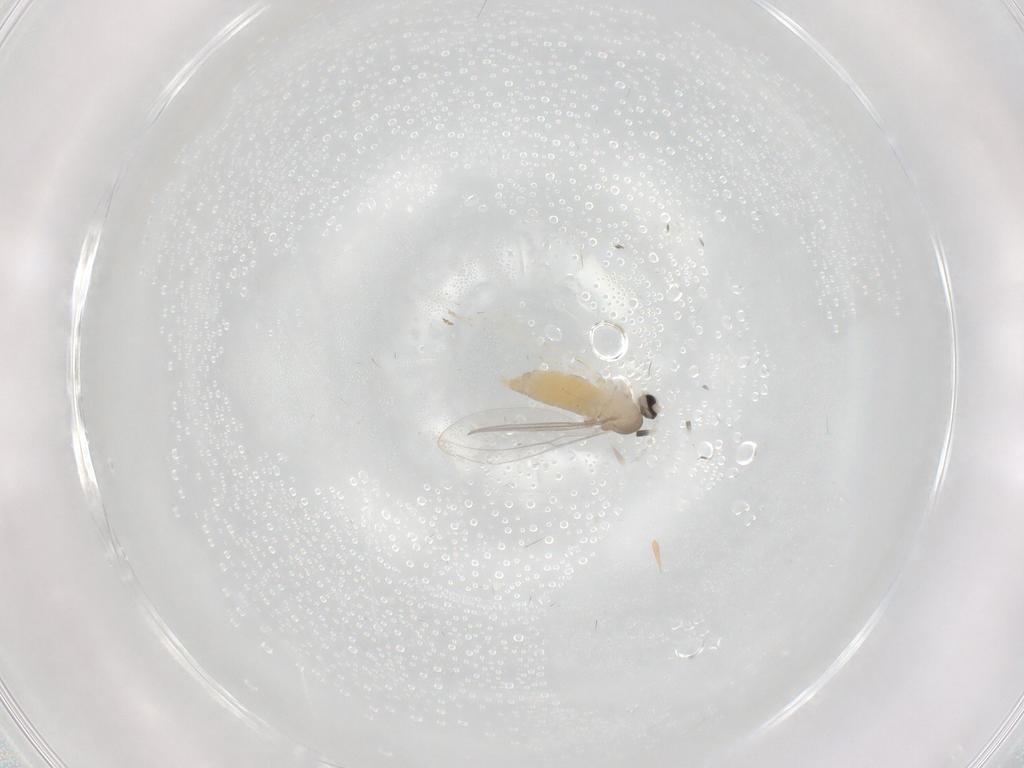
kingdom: Animalia
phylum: Arthropoda
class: Insecta
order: Diptera
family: Cecidomyiidae
